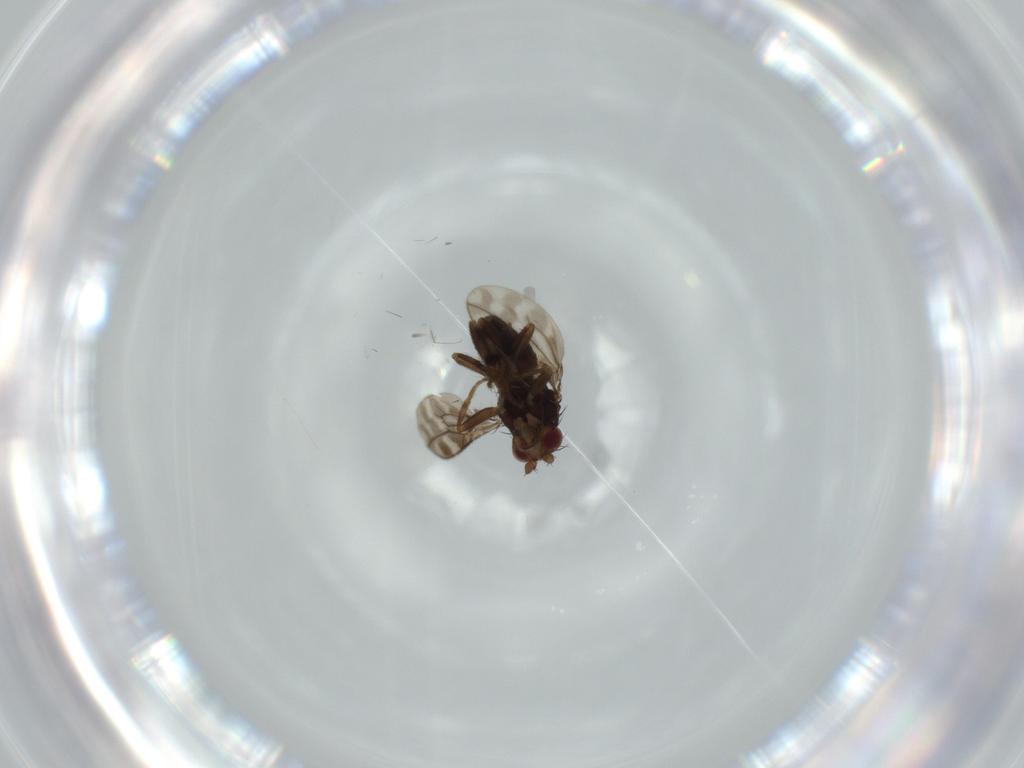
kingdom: Animalia
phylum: Arthropoda
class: Insecta
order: Diptera
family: Sphaeroceridae
